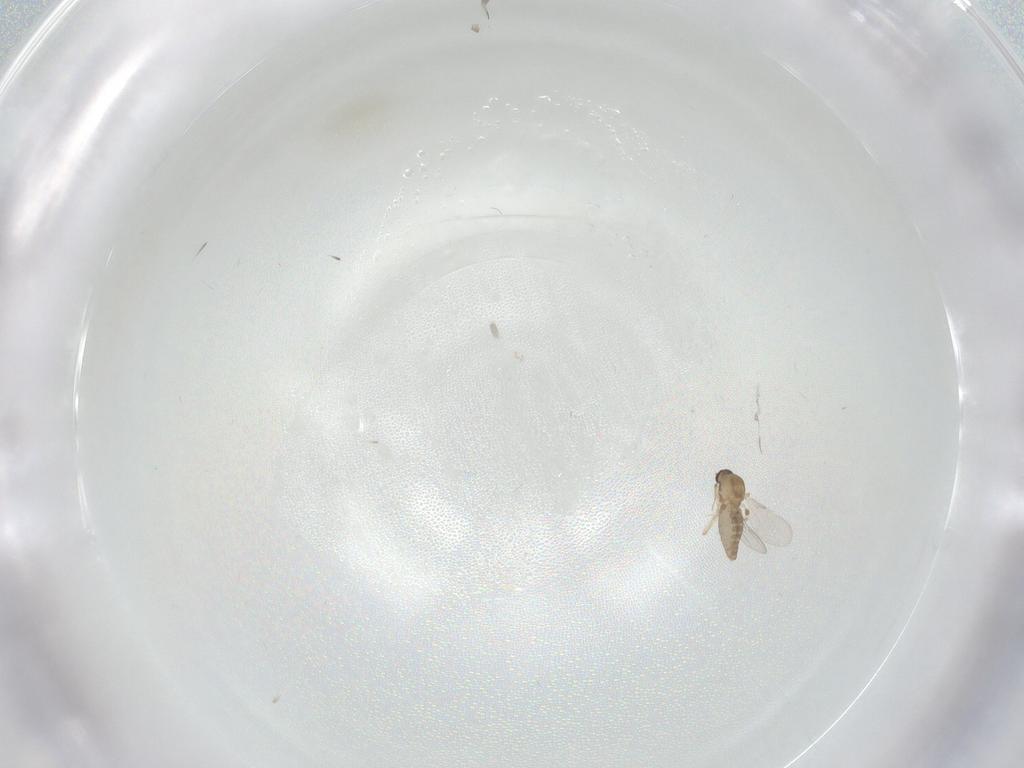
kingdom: Animalia
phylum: Arthropoda
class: Insecta
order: Diptera
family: Ceratopogonidae
